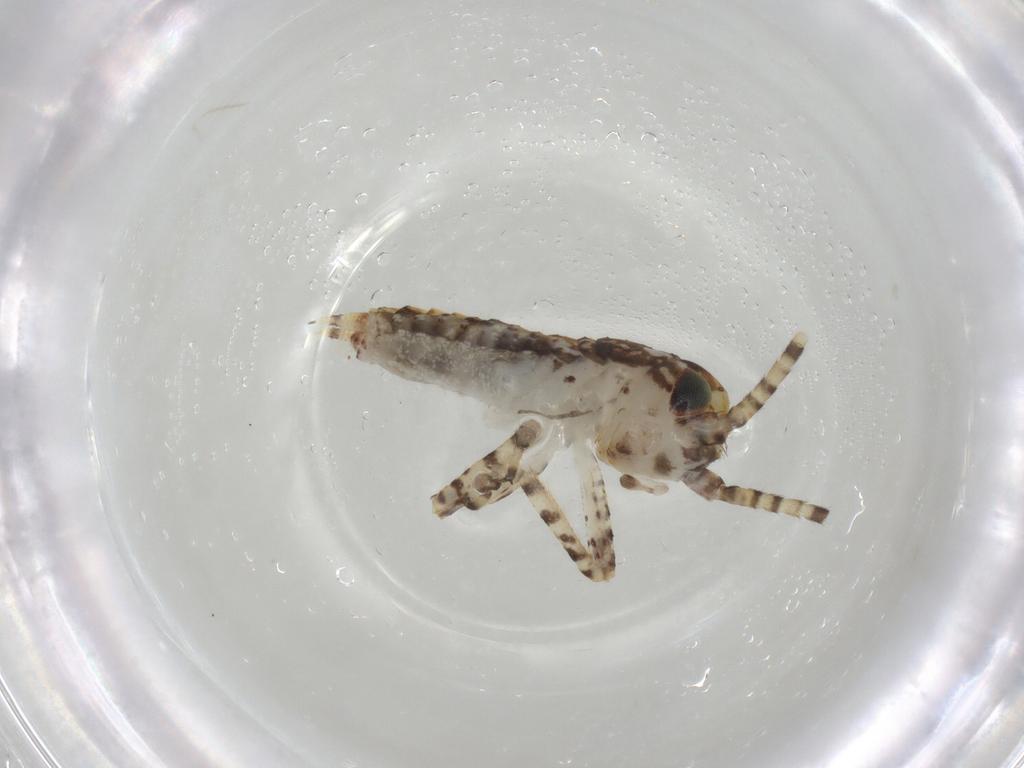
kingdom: Animalia
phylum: Arthropoda
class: Insecta
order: Orthoptera
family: Gryllidae
